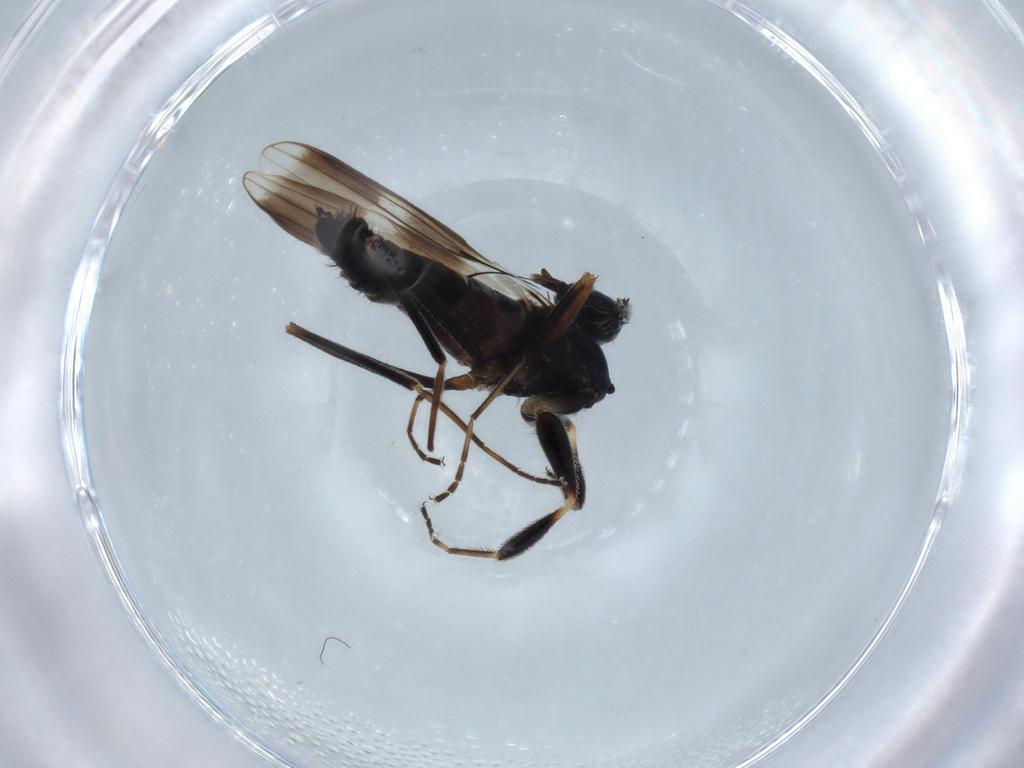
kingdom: Animalia
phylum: Arthropoda
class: Insecta
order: Diptera
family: Hybotidae
